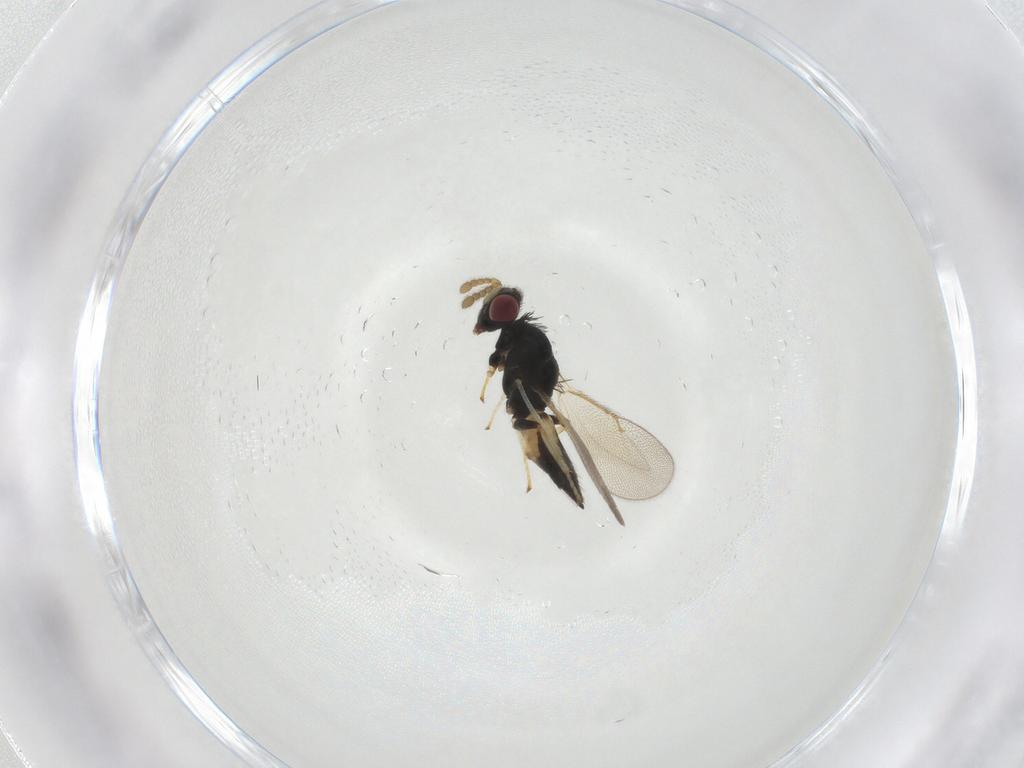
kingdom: Animalia
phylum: Arthropoda
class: Insecta
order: Hymenoptera
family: Eulophidae
